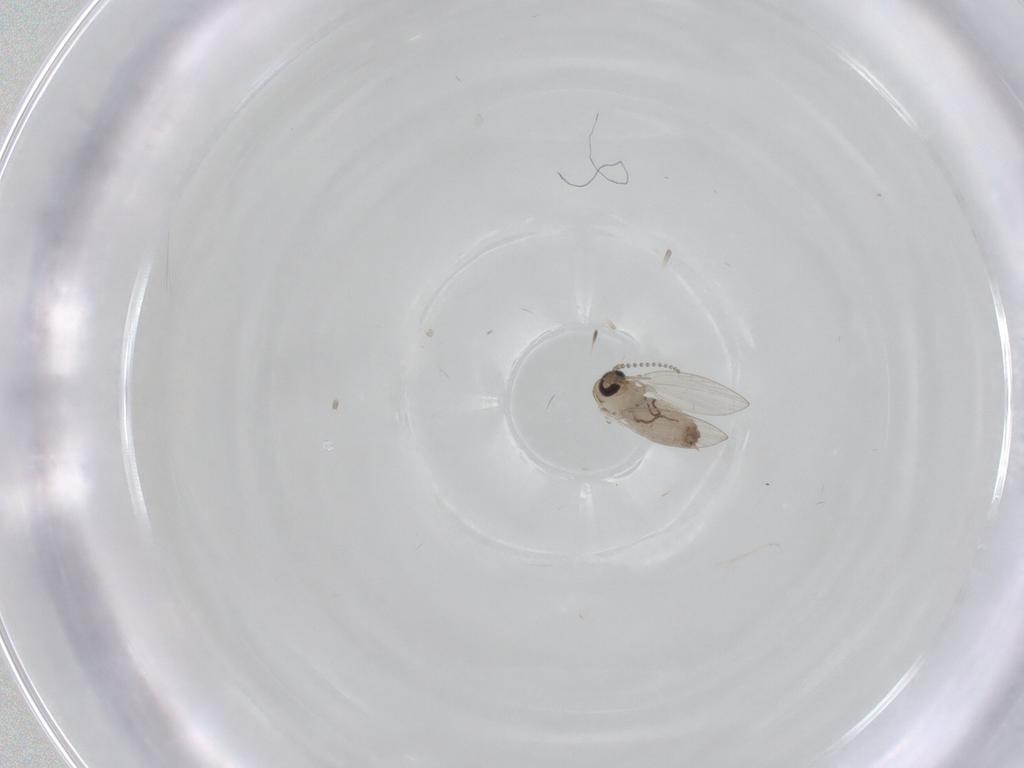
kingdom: Animalia
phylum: Arthropoda
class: Insecta
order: Diptera
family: Psychodidae
